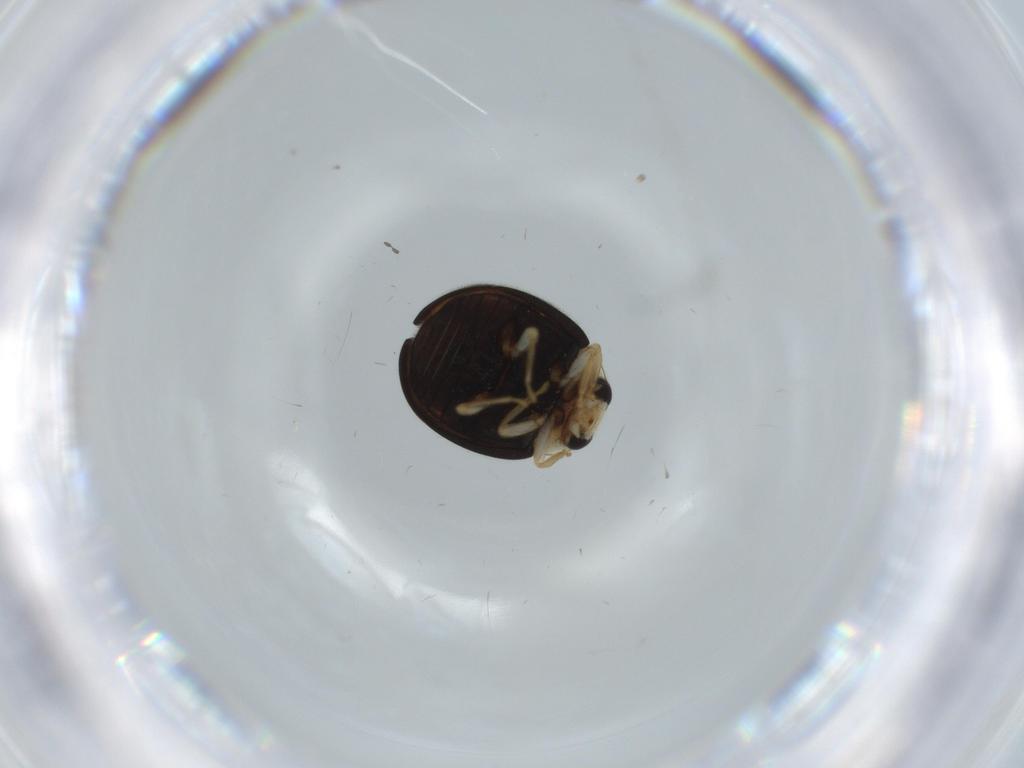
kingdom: Animalia
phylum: Arthropoda
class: Insecta
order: Coleoptera
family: Coccinellidae
